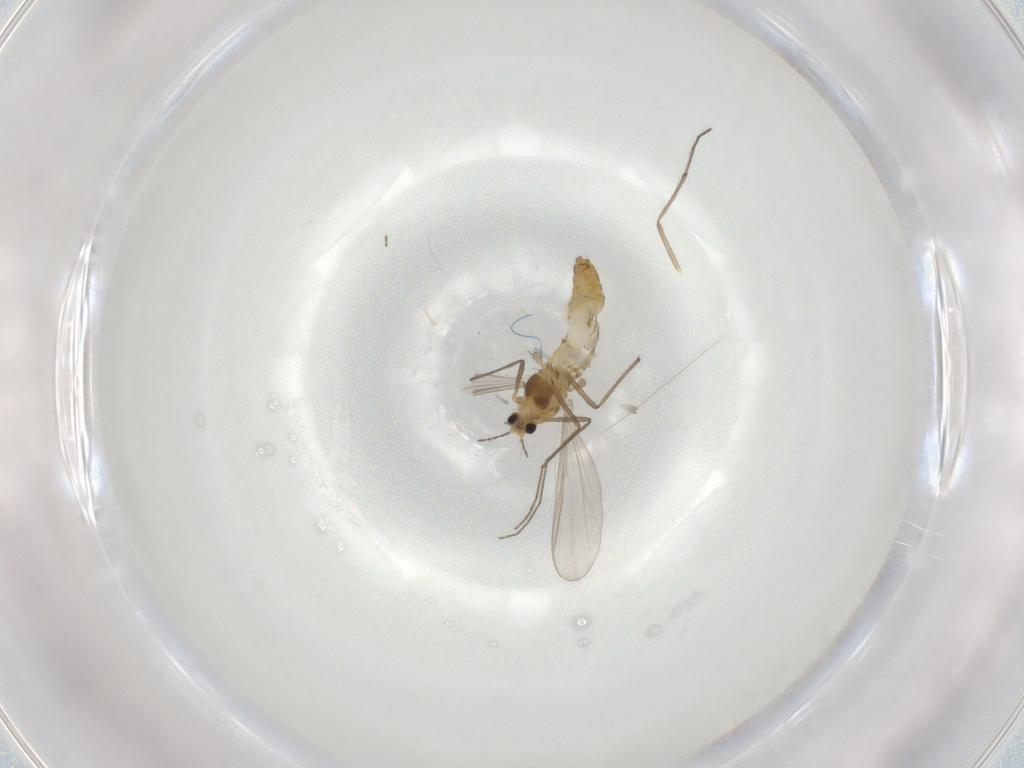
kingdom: Animalia
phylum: Arthropoda
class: Insecta
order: Diptera
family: Chironomidae
